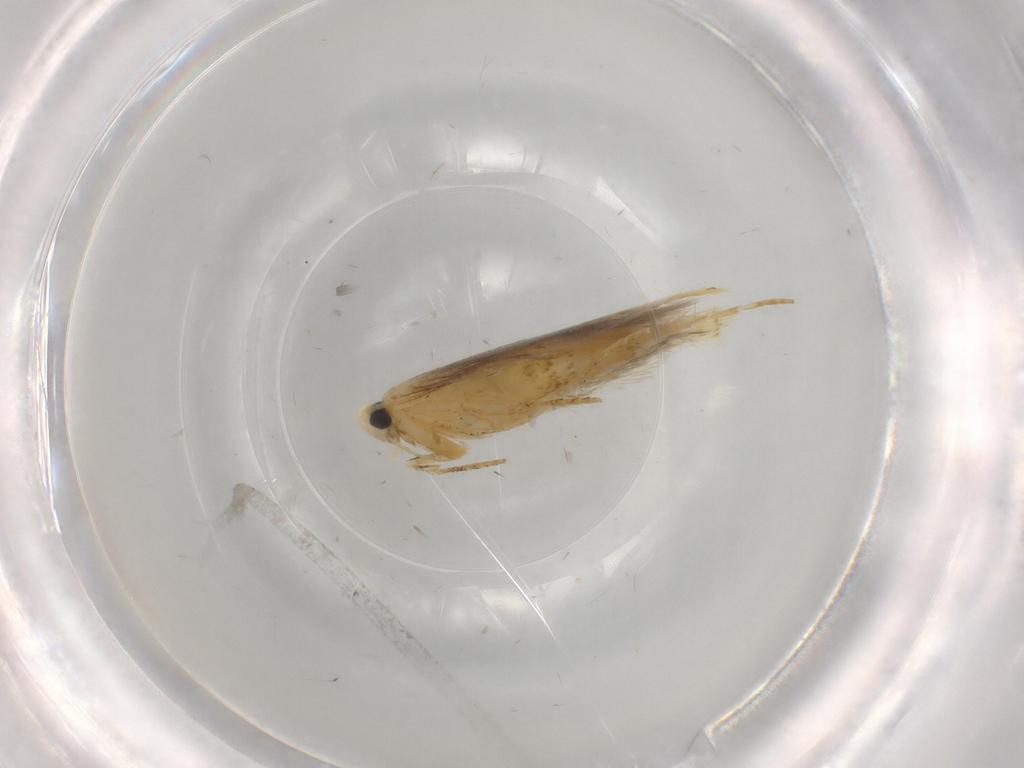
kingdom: Animalia
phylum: Arthropoda
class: Insecta
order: Lepidoptera
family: Tischeriidae
